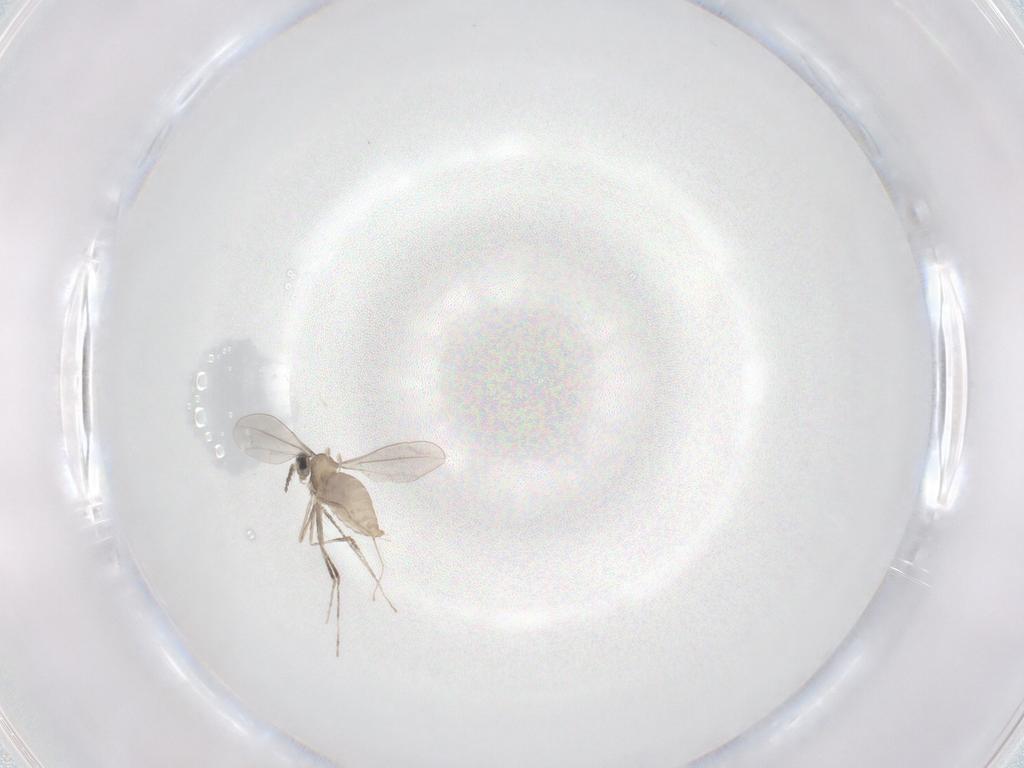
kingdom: Animalia
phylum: Arthropoda
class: Insecta
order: Diptera
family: Cecidomyiidae
